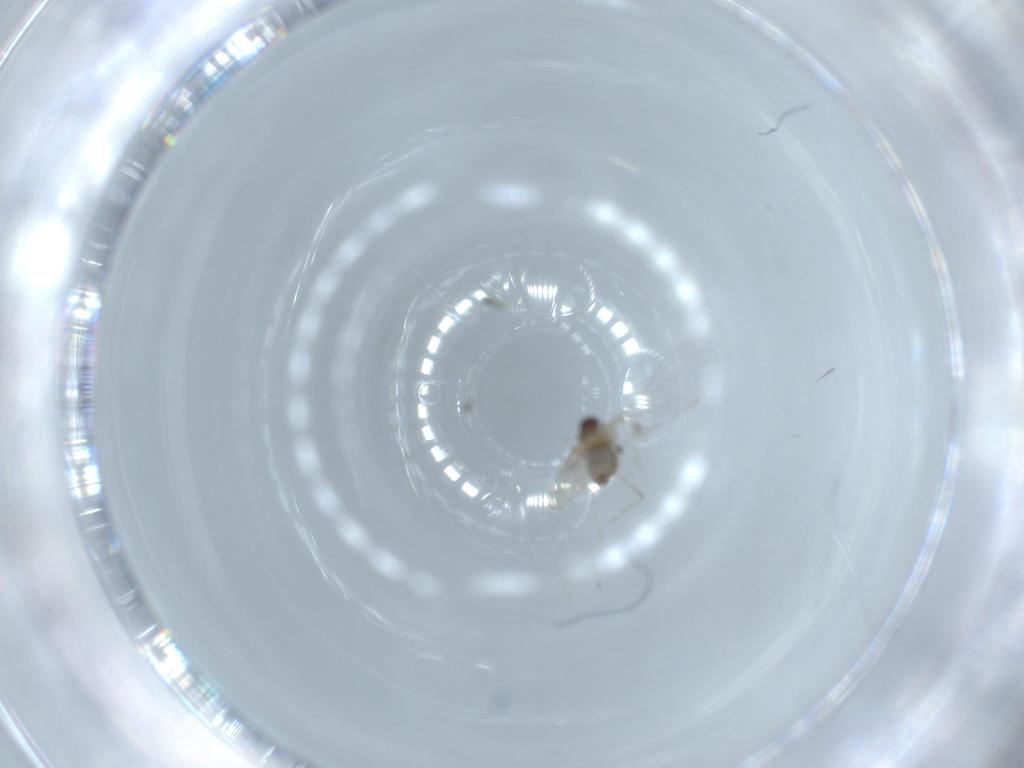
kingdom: Animalia
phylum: Arthropoda
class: Insecta
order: Diptera
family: Cecidomyiidae
